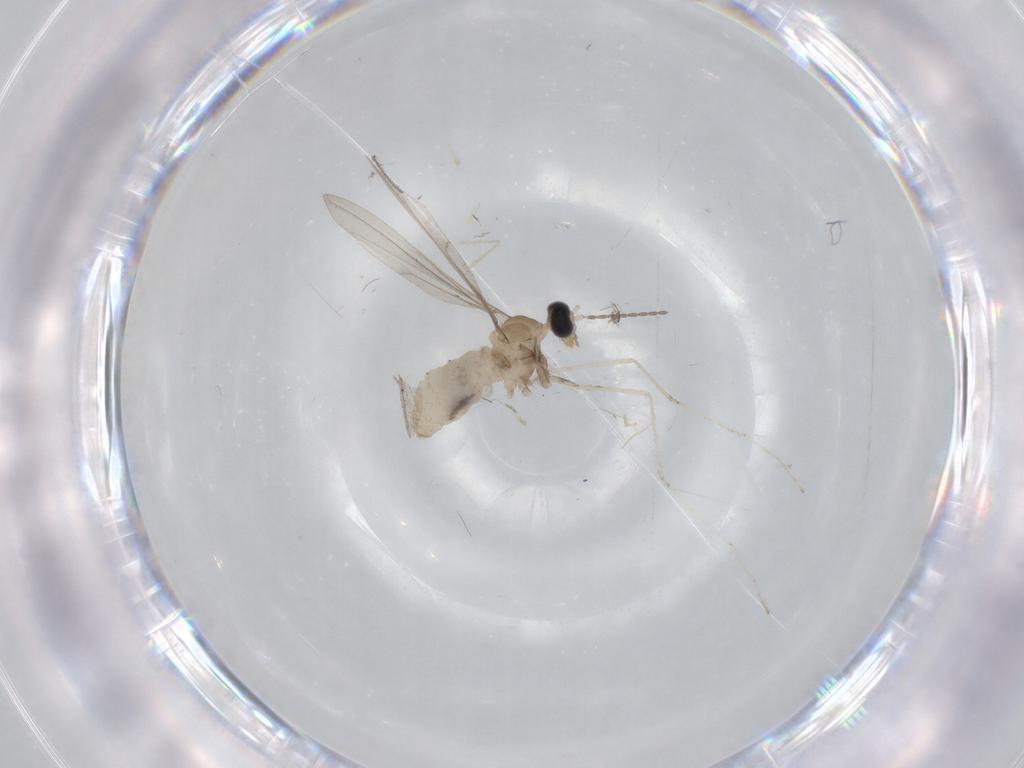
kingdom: Animalia
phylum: Arthropoda
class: Insecta
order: Diptera
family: Cecidomyiidae
